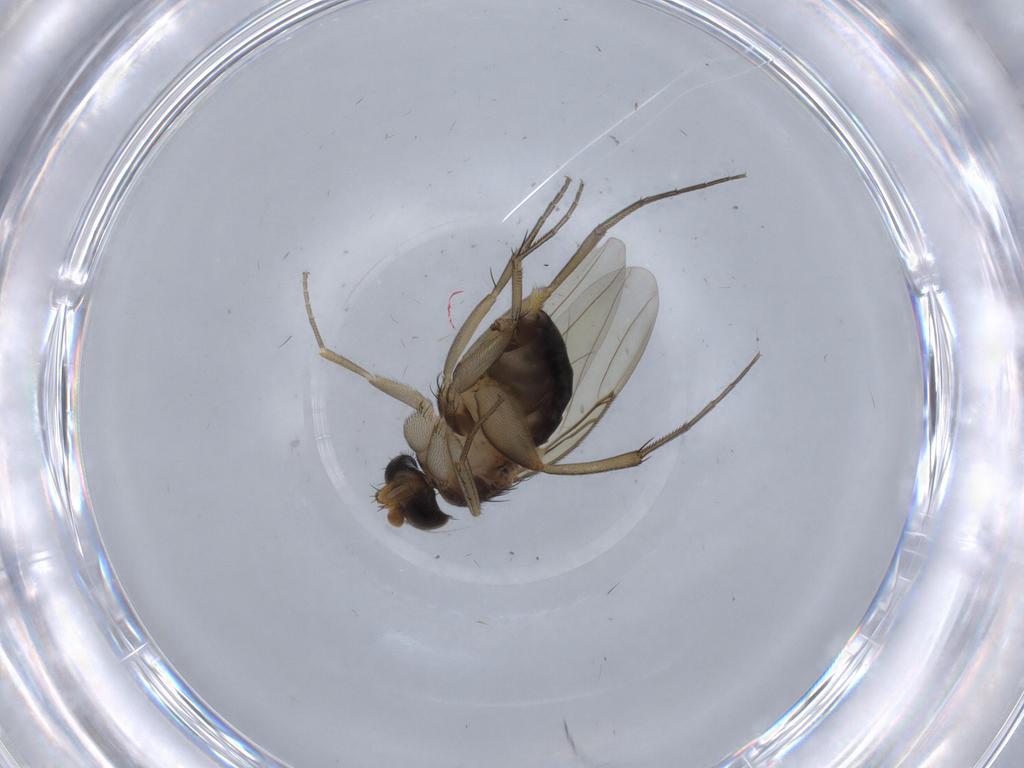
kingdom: Animalia
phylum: Arthropoda
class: Insecta
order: Diptera
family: Phoridae
